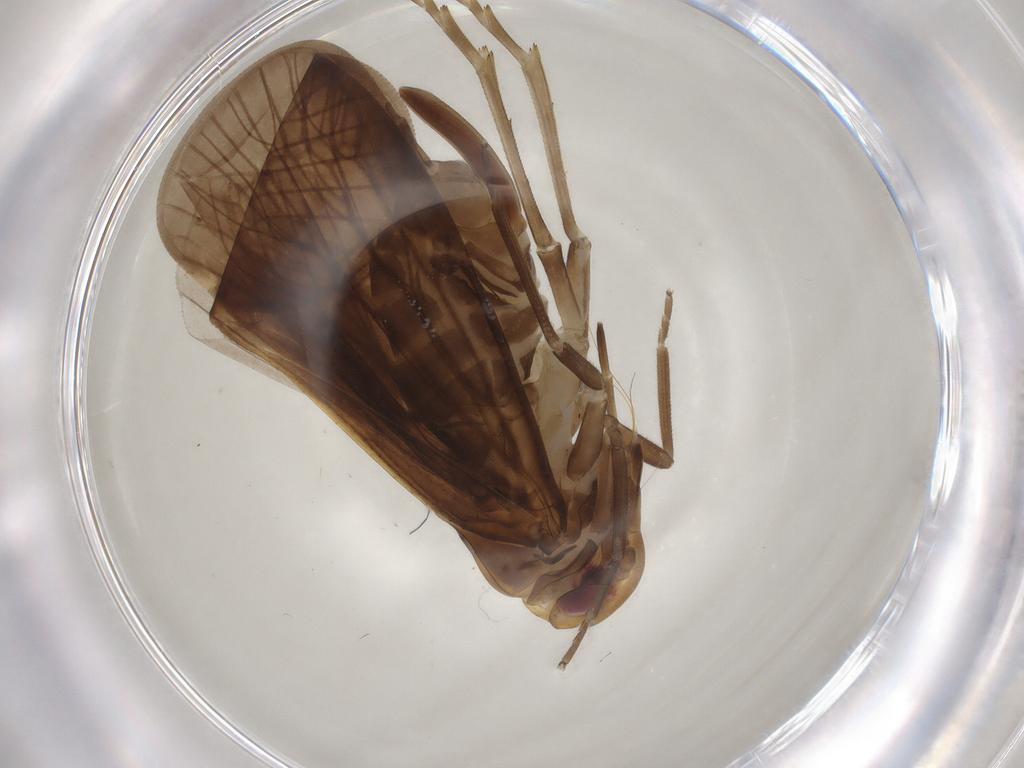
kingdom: Animalia
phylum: Arthropoda
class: Insecta
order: Hemiptera
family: Cixiidae
